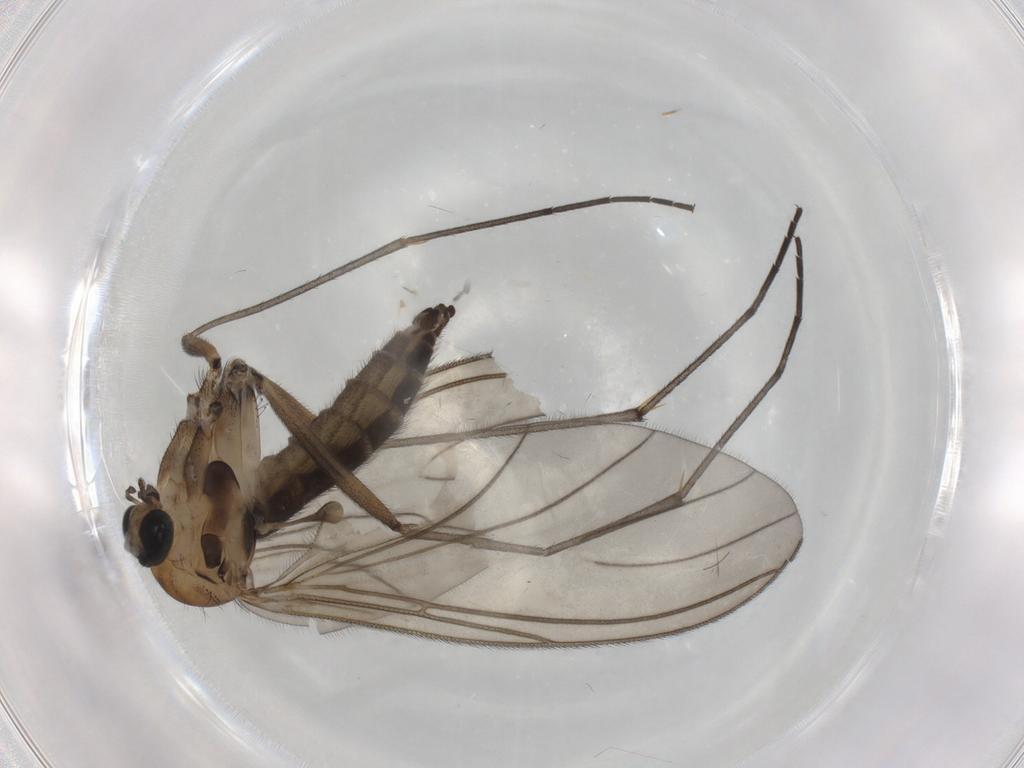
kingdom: Animalia
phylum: Arthropoda
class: Insecta
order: Diptera
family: Sciaridae
